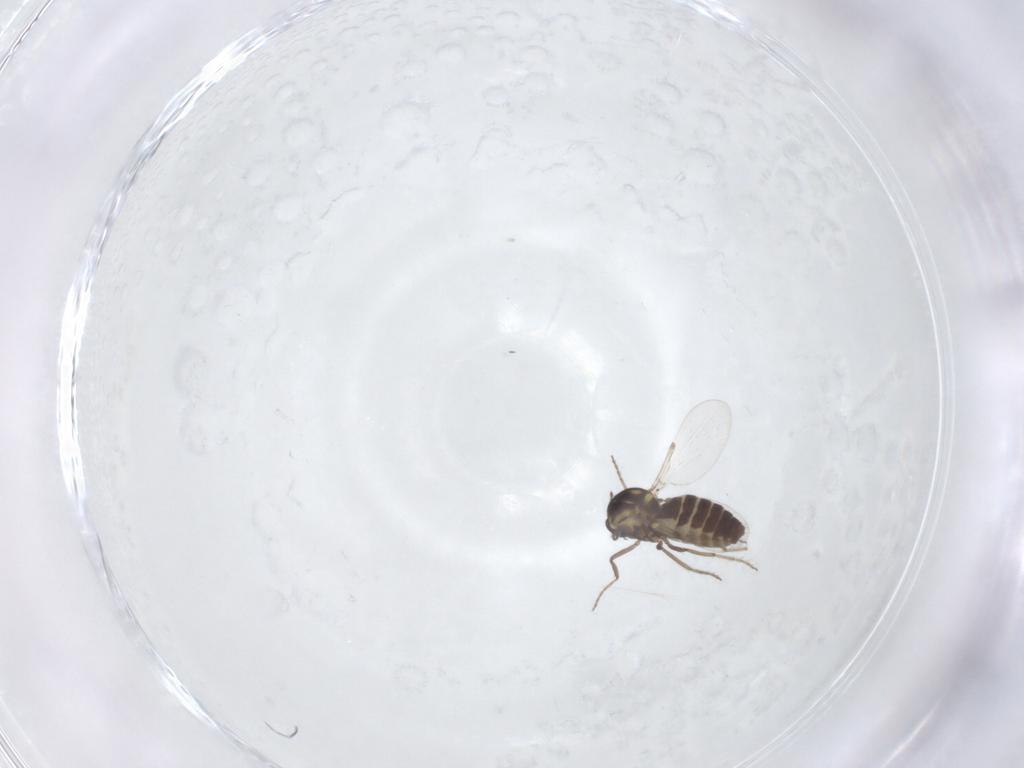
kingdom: Animalia
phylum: Arthropoda
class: Insecta
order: Diptera
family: Ceratopogonidae
